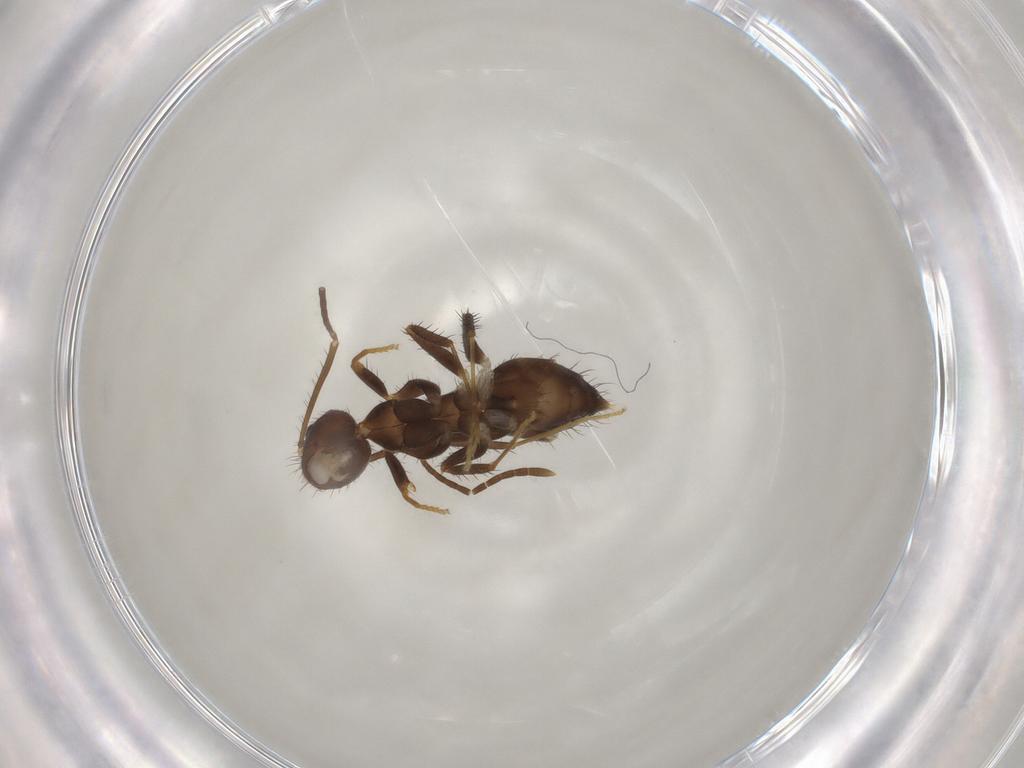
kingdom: Animalia
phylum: Arthropoda
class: Insecta
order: Hymenoptera
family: Formicidae
